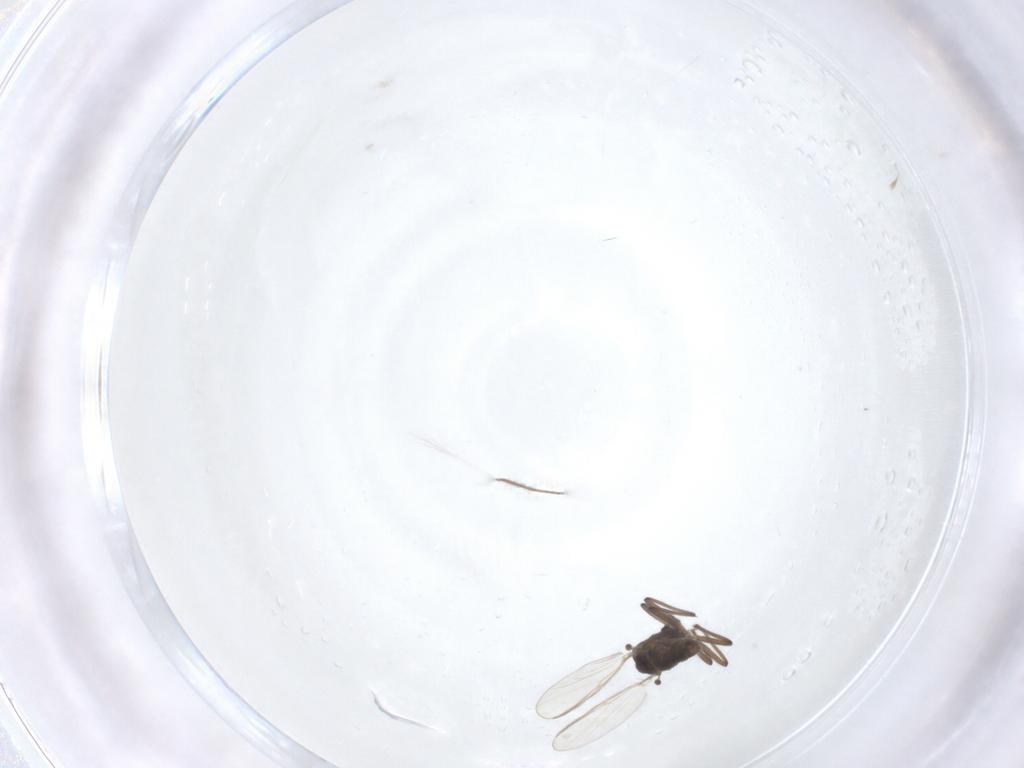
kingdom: Animalia
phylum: Arthropoda
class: Insecta
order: Diptera
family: Chironomidae
